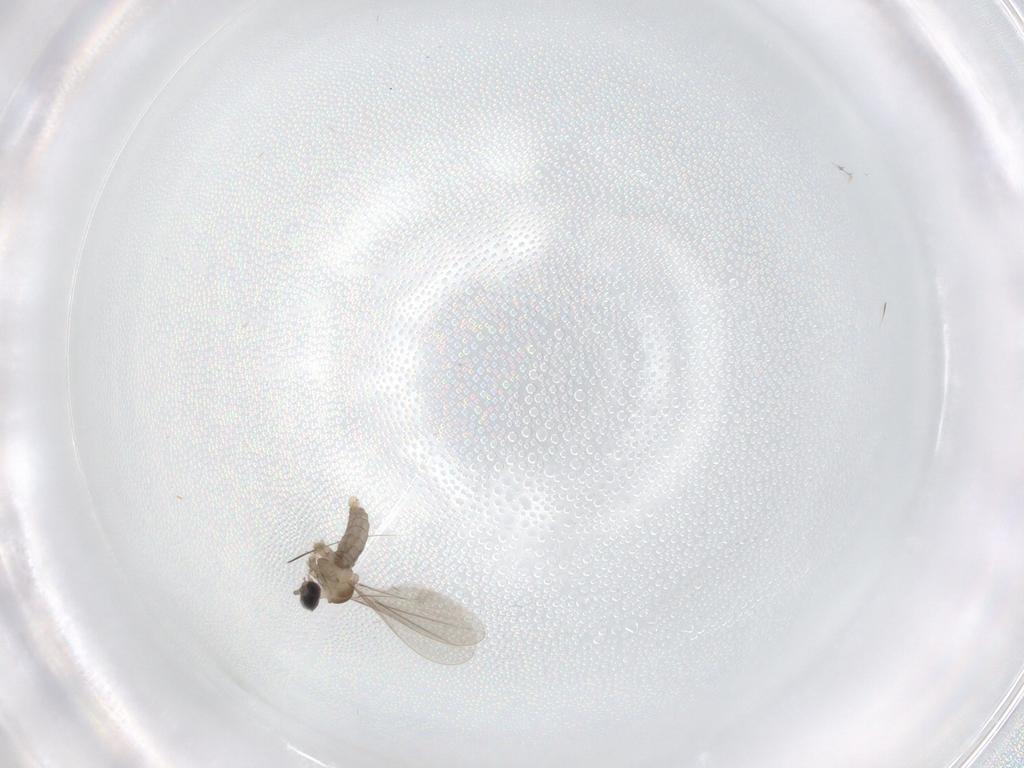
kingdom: Animalia
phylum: Arthropoda
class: Insecta
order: Diptera
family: Cecidomyiidae
